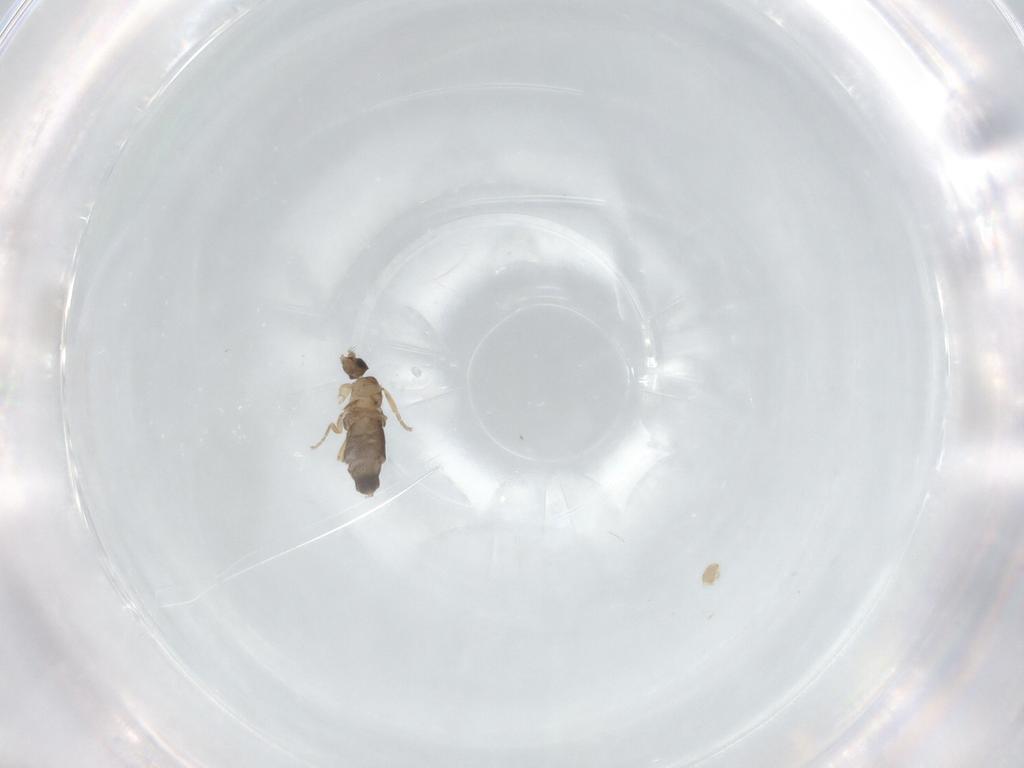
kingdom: Animalia
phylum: Arthropoda
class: Insecta
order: Diptera
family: Phoridae
